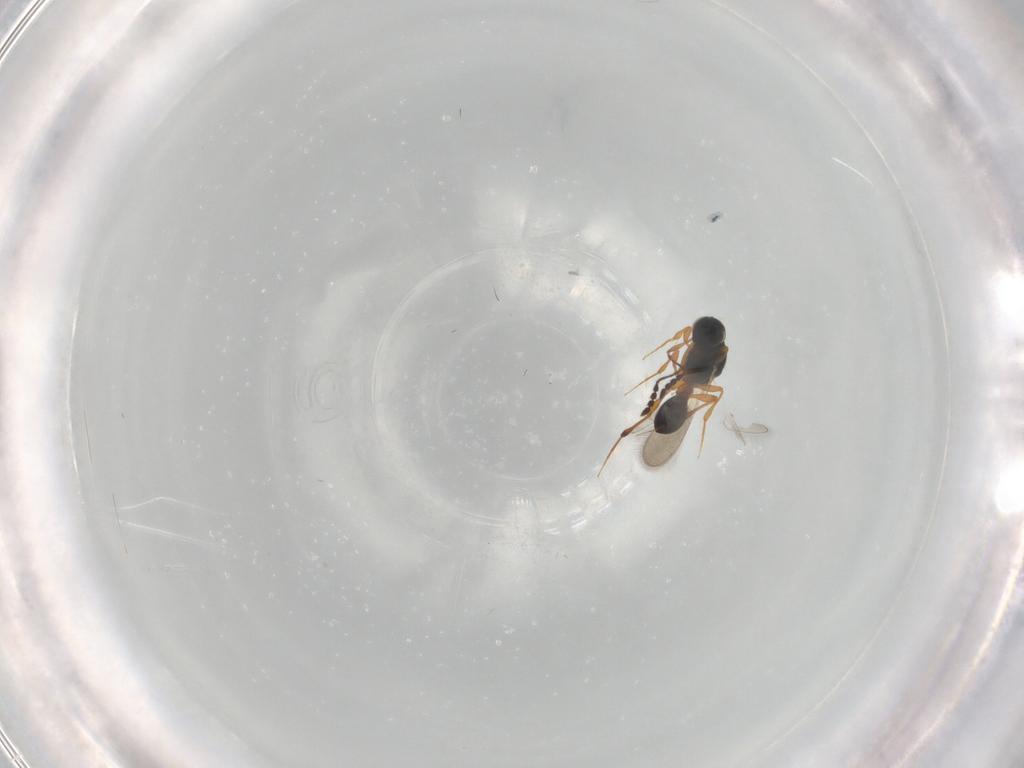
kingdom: Animalia
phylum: Arthropoda
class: Insecta
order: Hymenoptera
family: Platygastridae
